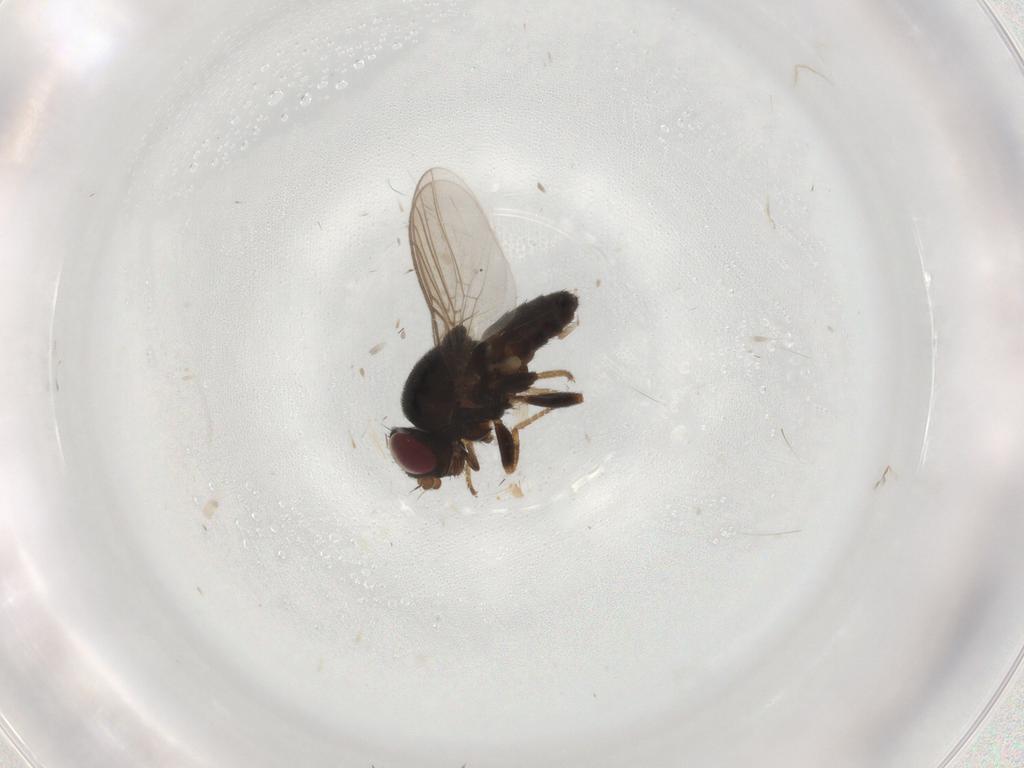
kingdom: Animalia
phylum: Arthropoda
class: Insecta
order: Diptera
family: Chloropidae
